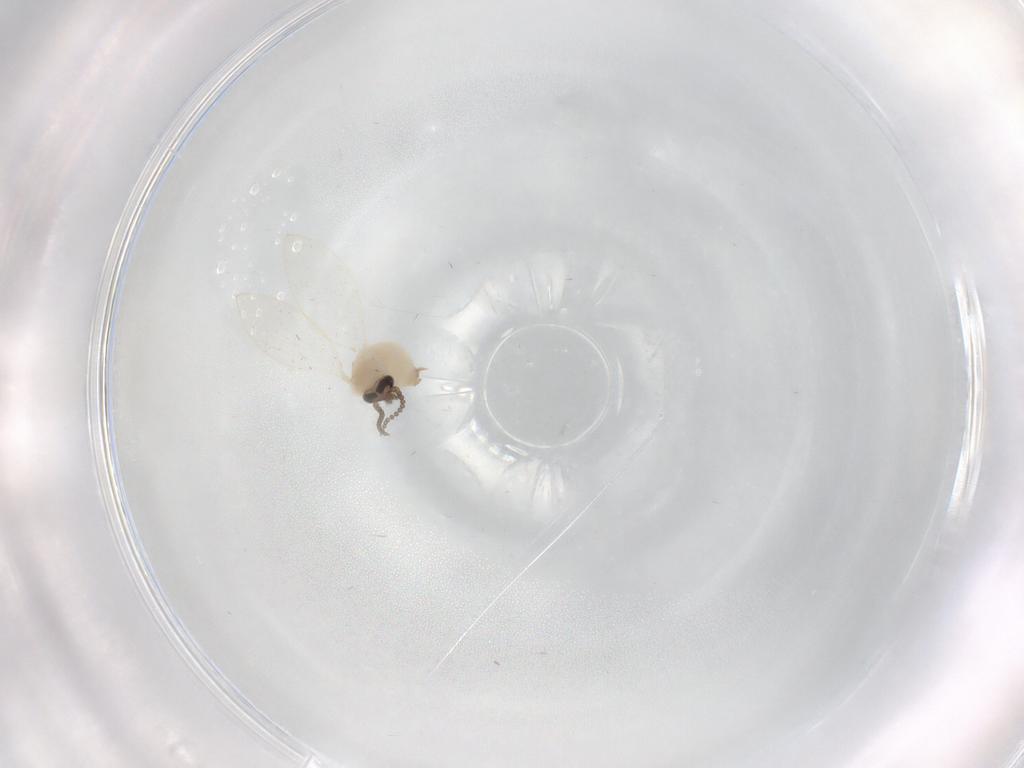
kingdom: Animalia
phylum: Arthropoda
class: Insecta
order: Diptera
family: Psychodidae
